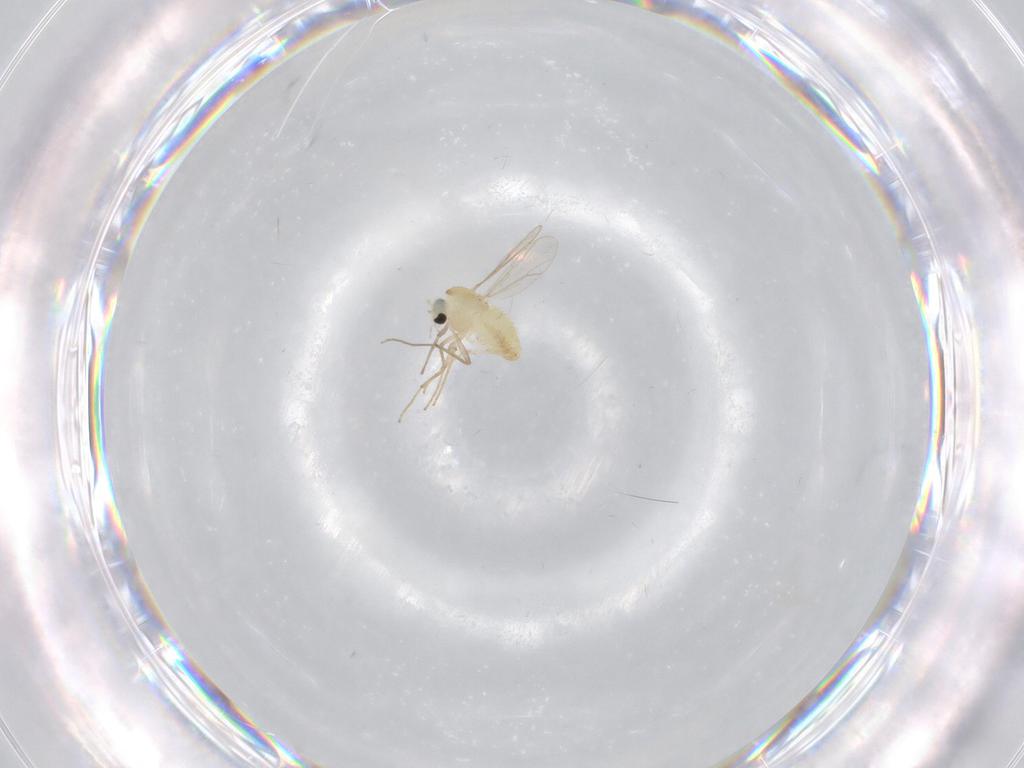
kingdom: Animalia
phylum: Arthropoda
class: Insecta
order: Diptera
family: Chironomidae
